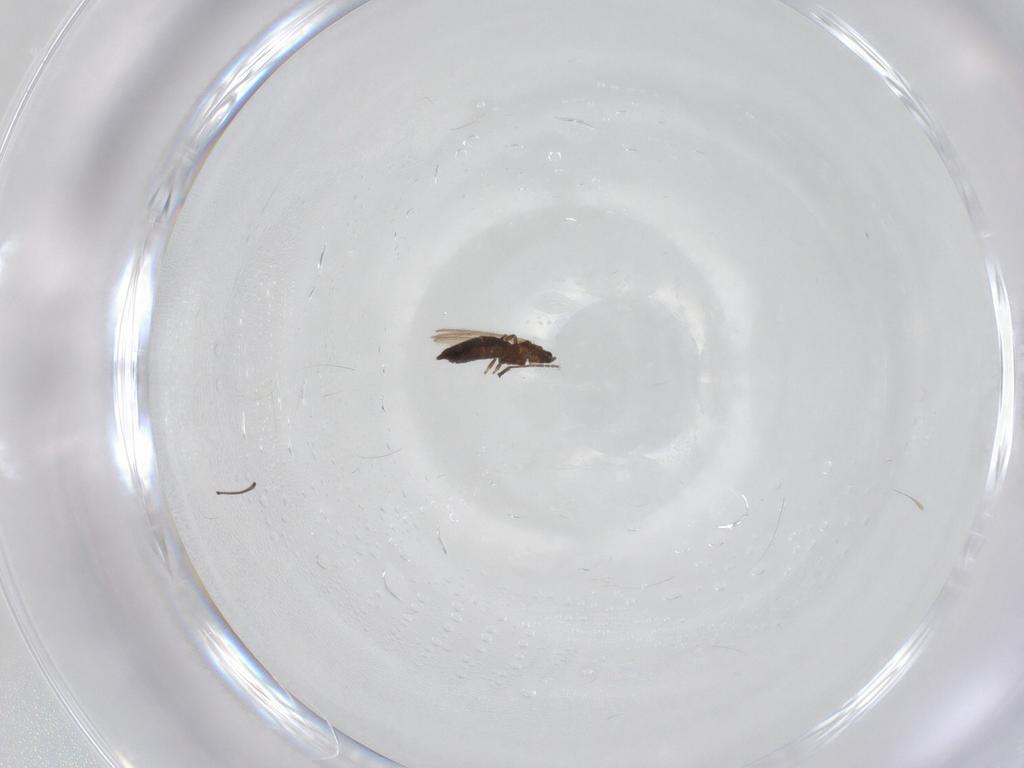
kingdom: Animalia
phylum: Arthropoda
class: Insecta
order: Diptera
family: Chironomidae
